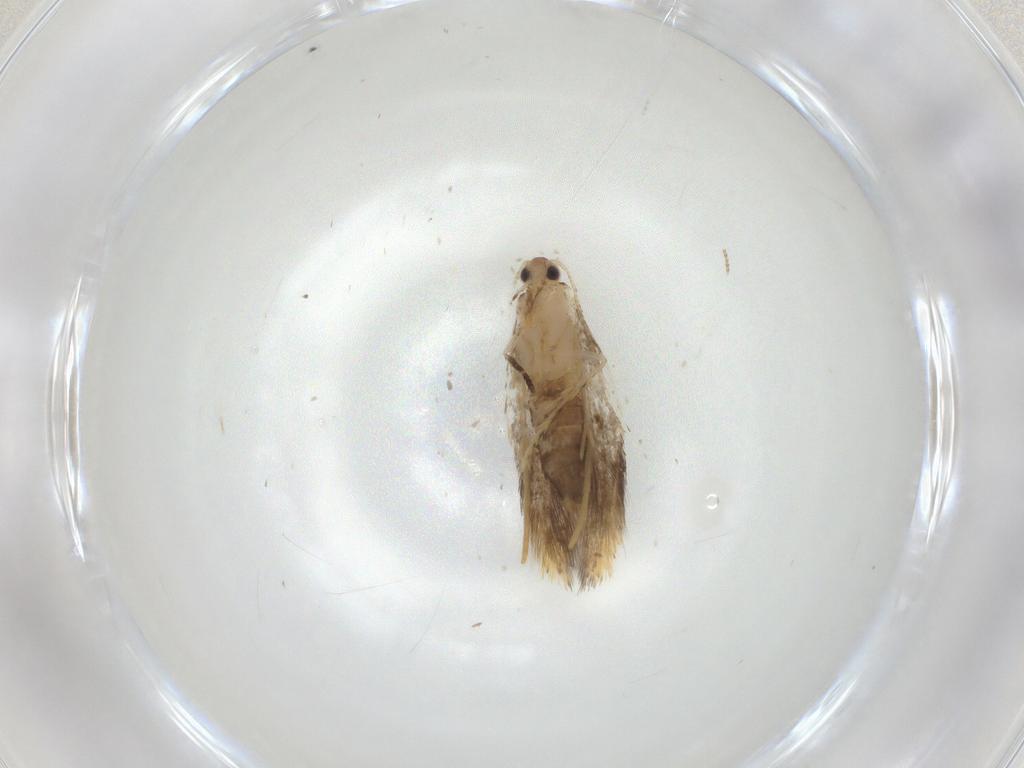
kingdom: Animalia
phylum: Arthropoda
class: Insecta
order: Lepidoptera
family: Tineidae
